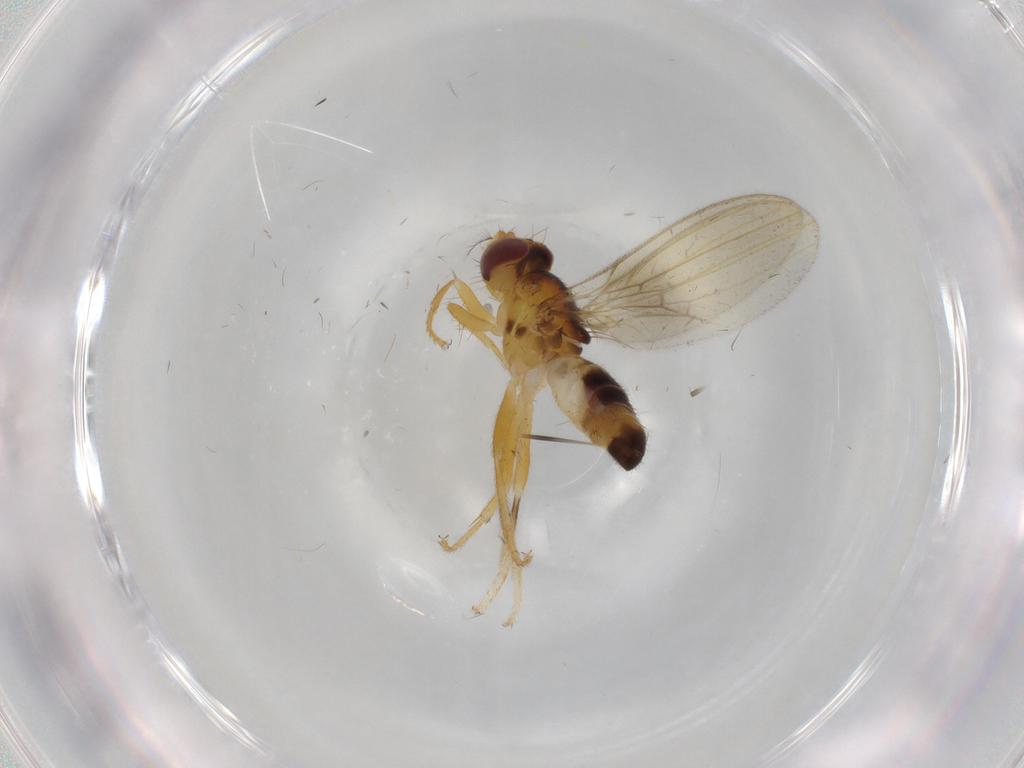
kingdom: Animalia
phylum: Arthropoda
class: Insecta
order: Diptera
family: Periscelididae
